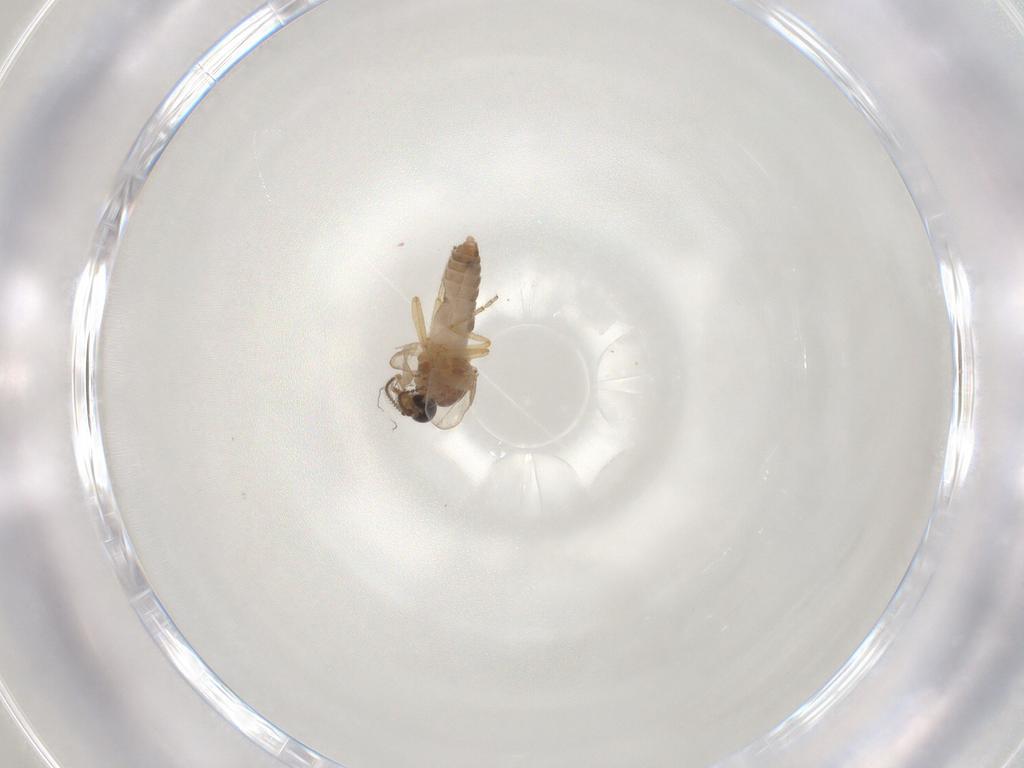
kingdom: Animalia
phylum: Arthropoda
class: Insecta
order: Diptera
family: Ceratopogonidae
